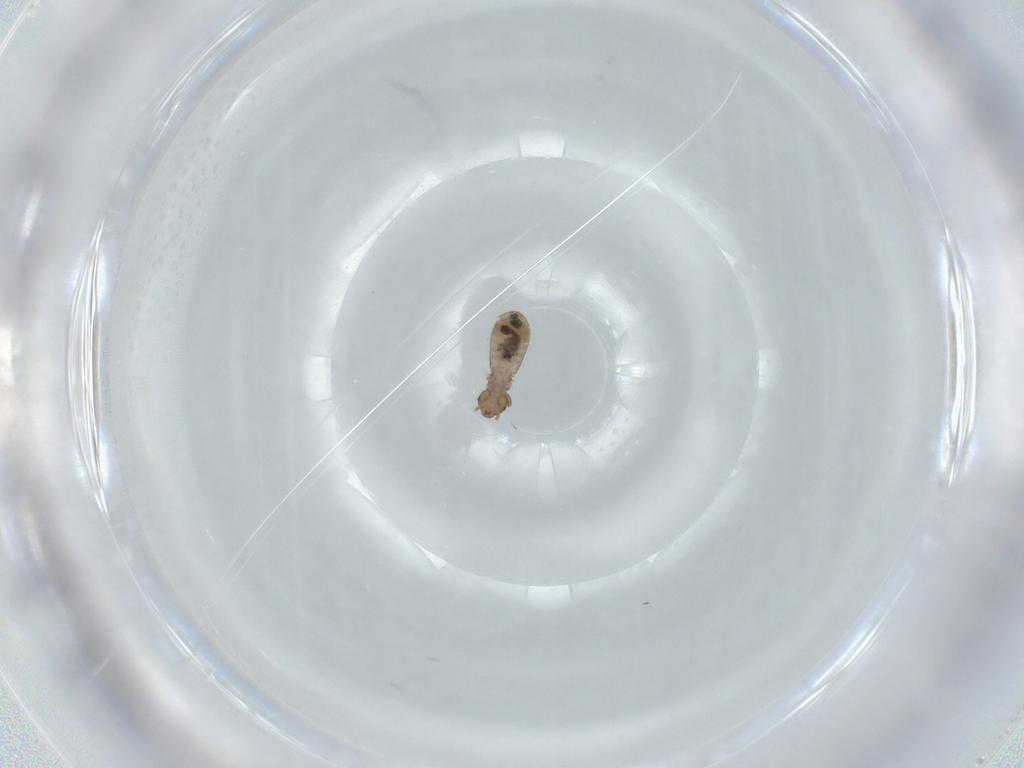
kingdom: Animalia
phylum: Arthropoda
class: Insecta
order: Psocodea
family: Liposcelididae
